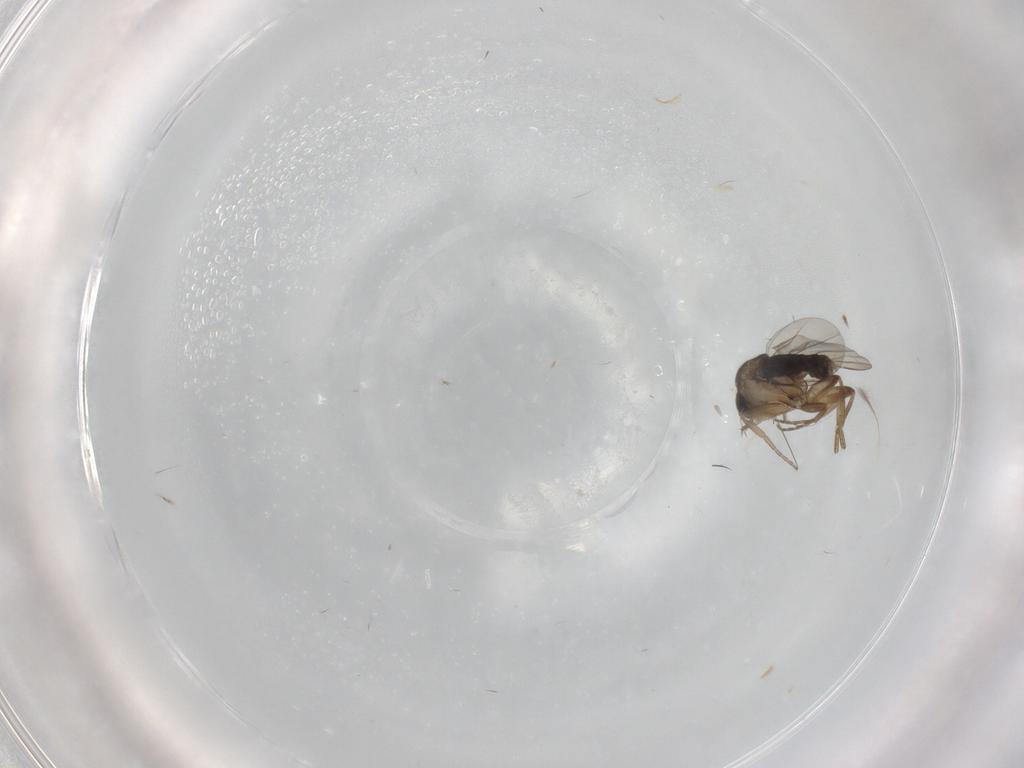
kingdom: Animalia
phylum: Arthropoda
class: Insecta
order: Diptera
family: Phoridae
